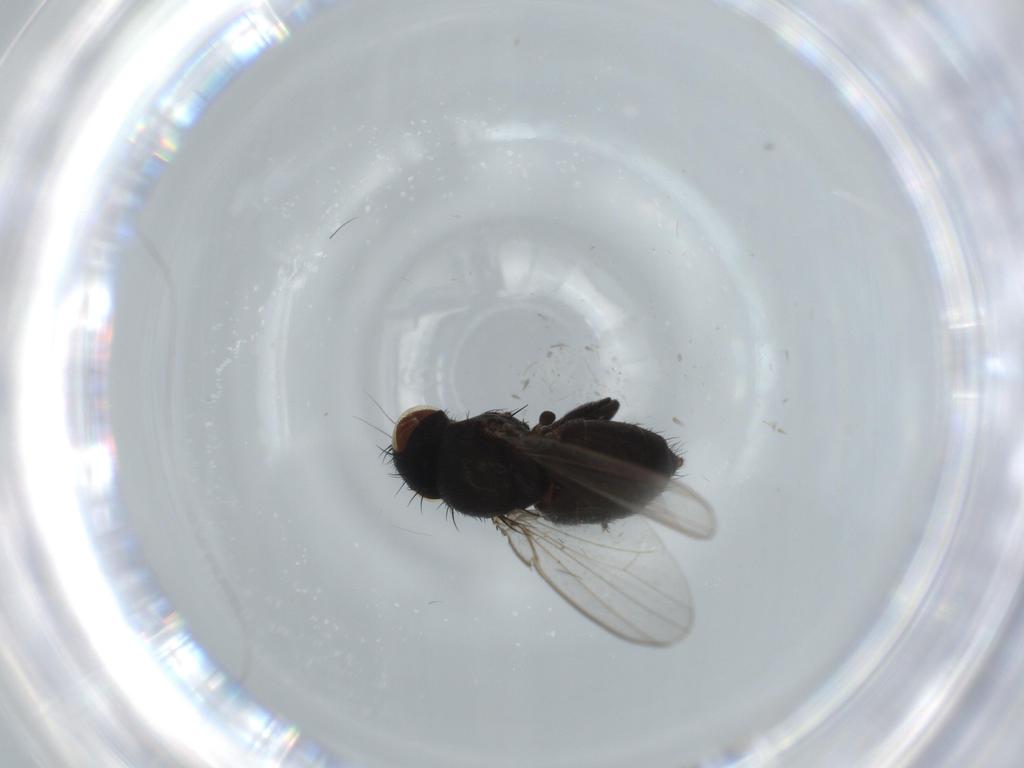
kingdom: Animalia
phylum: Arthropoda
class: Insecta
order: Diptera
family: Milichiidae
